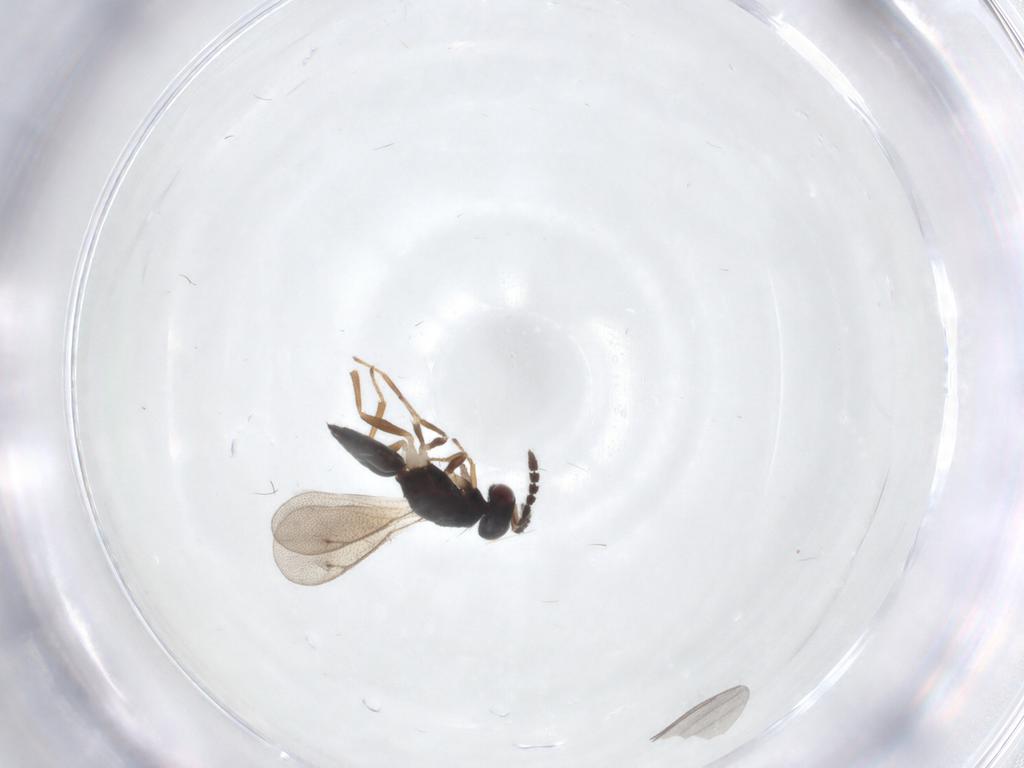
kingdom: Animalia
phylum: Arthropoda
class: Insecta
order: Hymenoptera
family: Eulophidae
